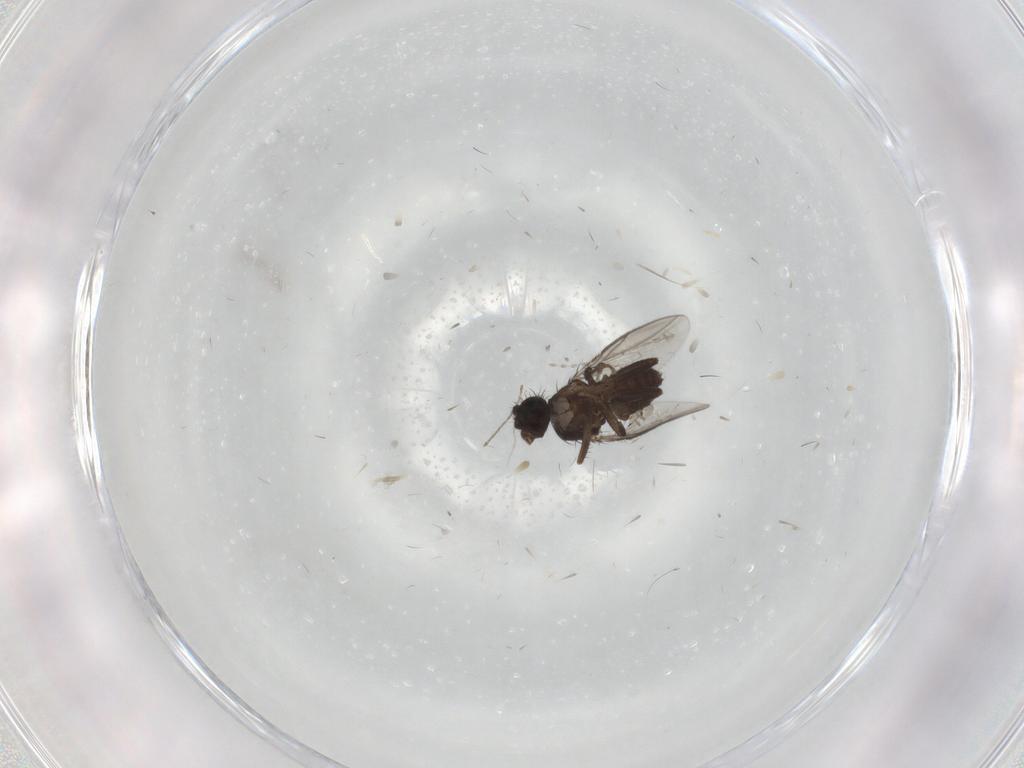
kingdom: Animalia
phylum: Arthropoda
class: Insecta
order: Diptera
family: Sphaeroceridae
